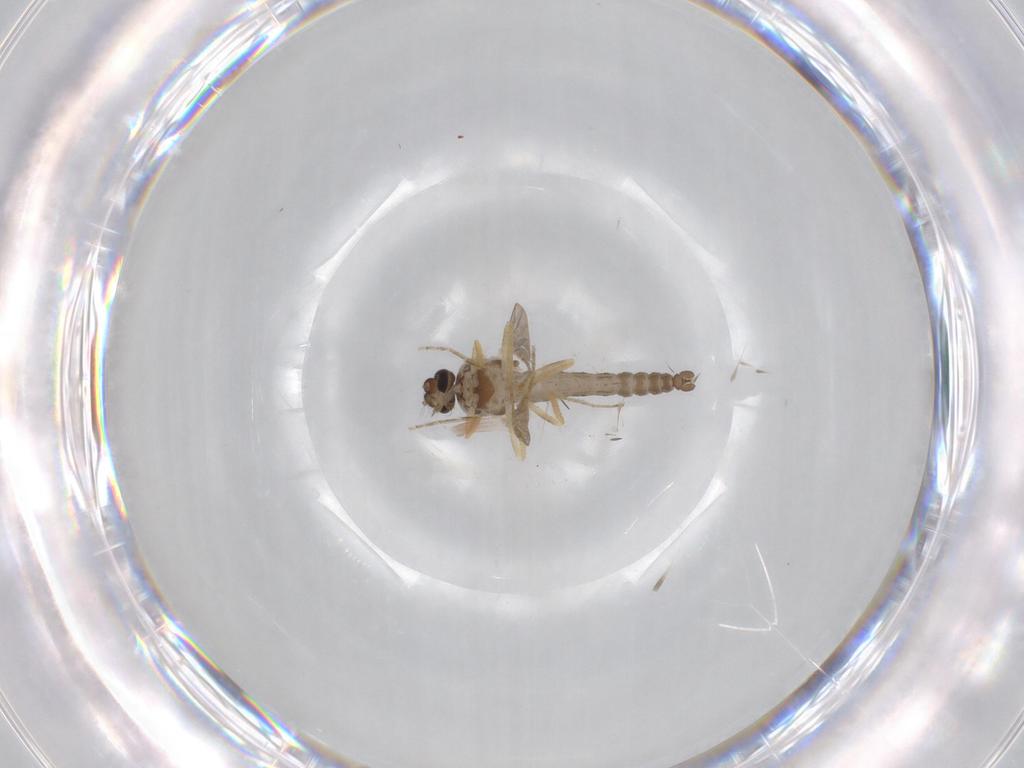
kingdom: Animalia
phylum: Arthropoda
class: Insecta
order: Diptera
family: Ceratopogonidae
